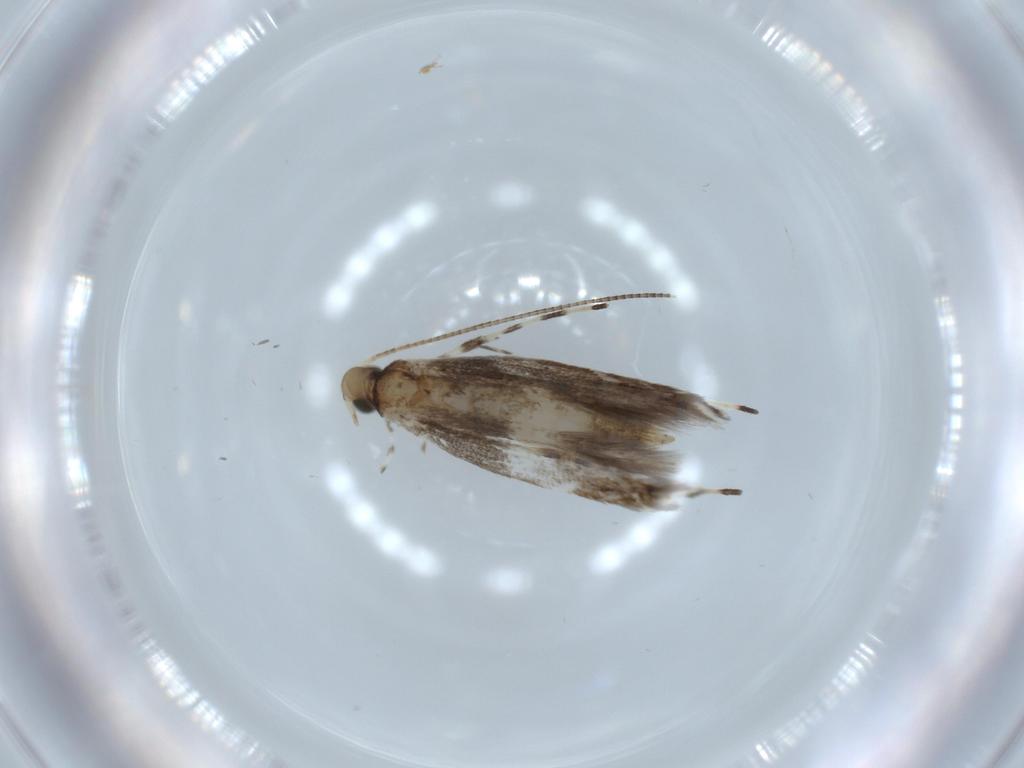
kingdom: Animalia
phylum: Arthropoda
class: Insecta
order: Lepidoptera
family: Gracillariidae
